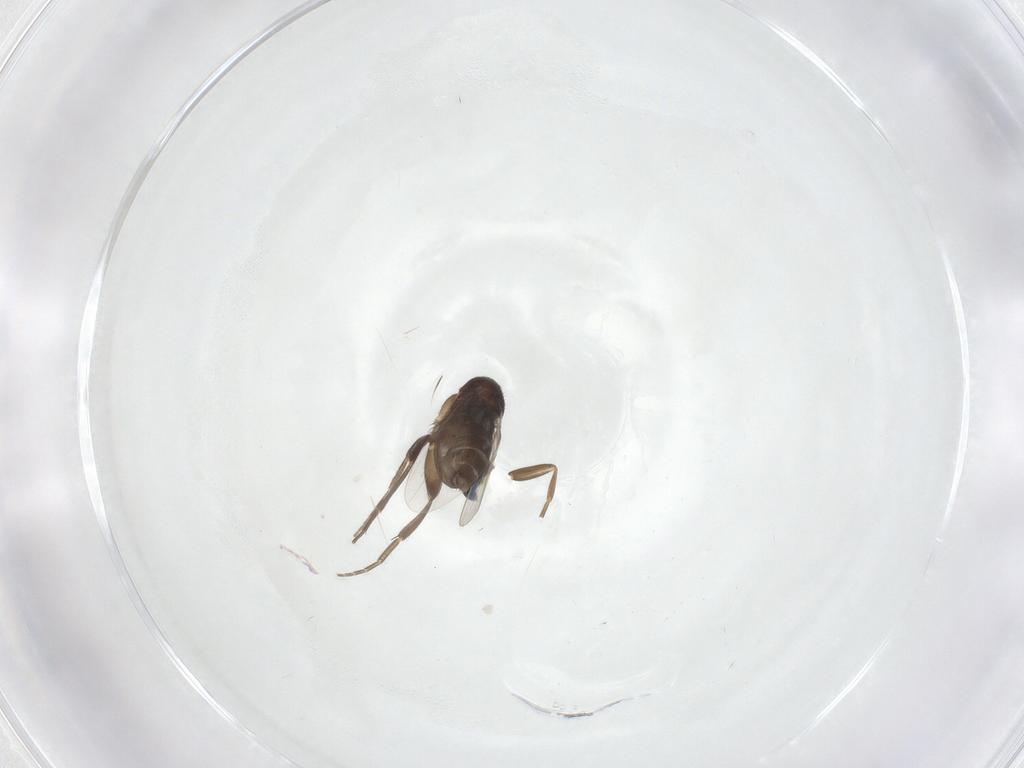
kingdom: Animalia
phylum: Arthropoda
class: Insecta
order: Diptera
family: Phoridae
